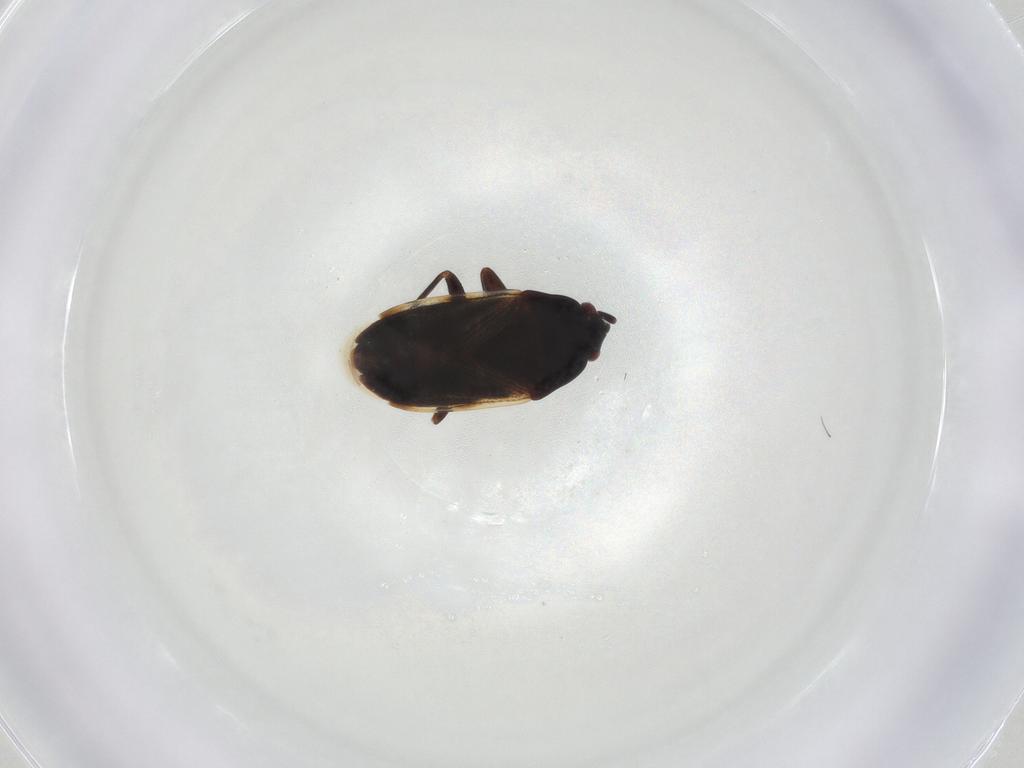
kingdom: Animalia
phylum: Arthropoda
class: Insecta
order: Hemiptera
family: Rhyparochromidae
